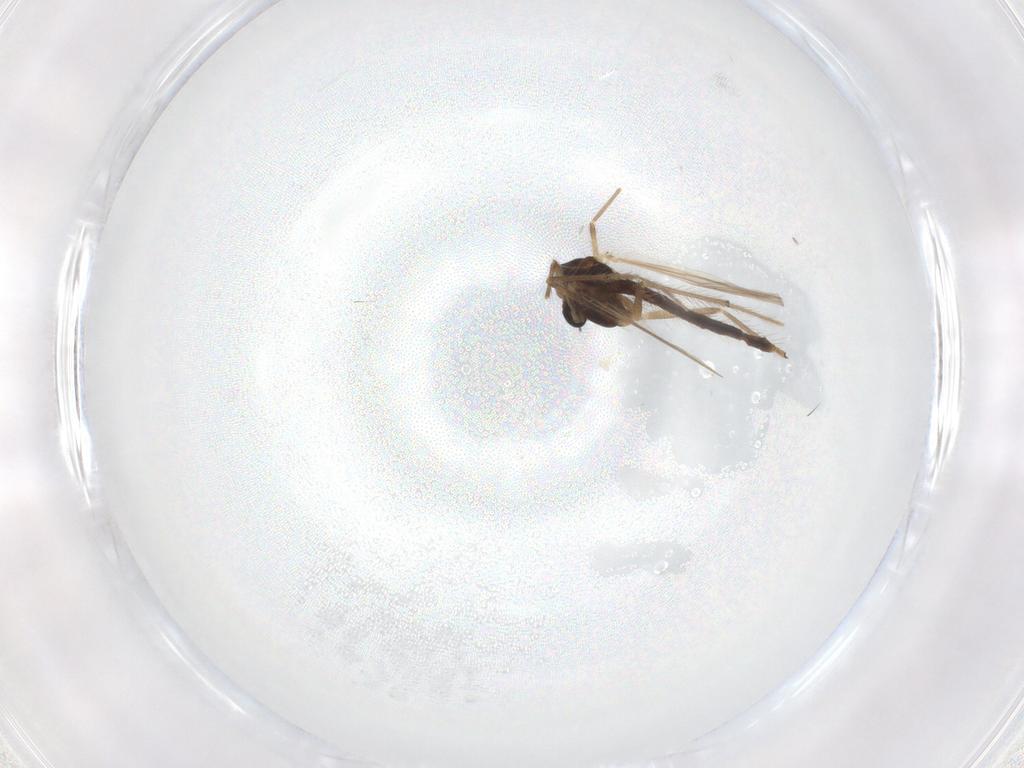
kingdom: Animalia
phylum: Arthropoda
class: Insecta
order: Diptera
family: Chironomidae
